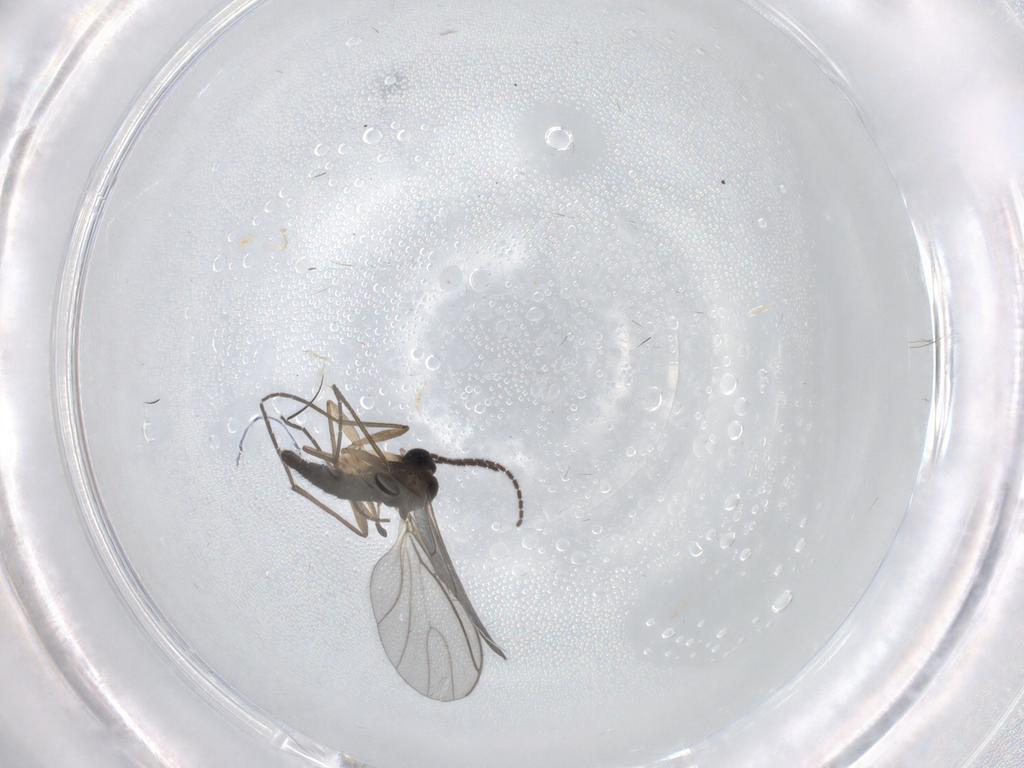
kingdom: Animalia
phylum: Arthropoda
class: Insecta
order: Diptera
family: Sciaridae
